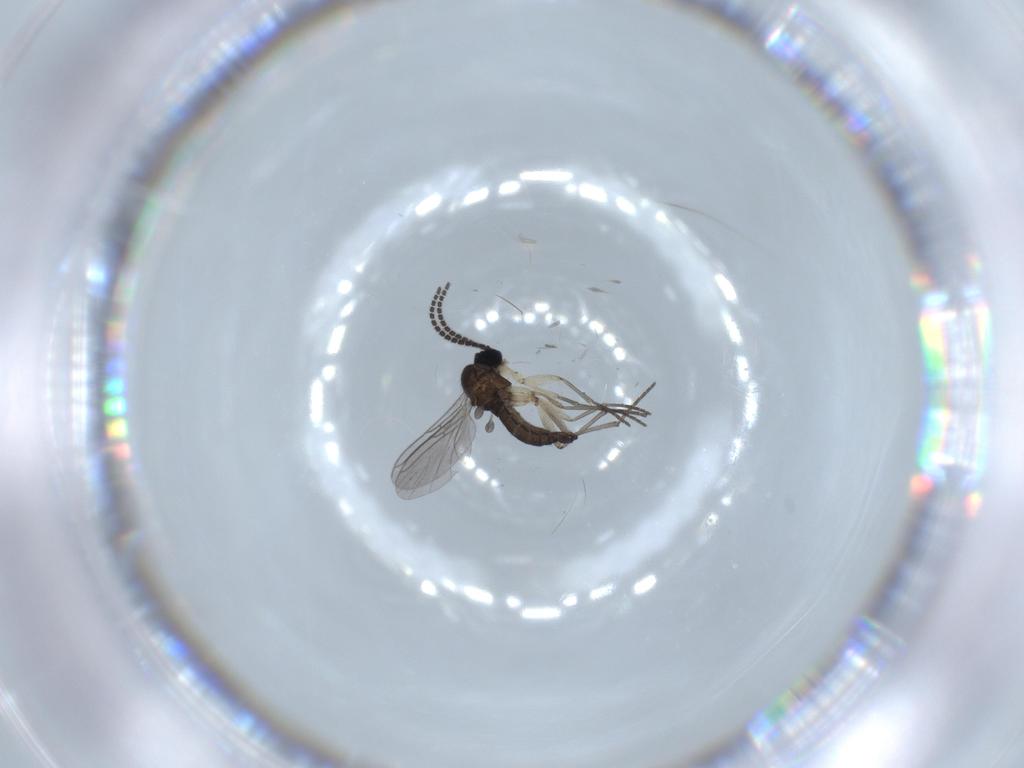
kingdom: Animalia
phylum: Arthropoda
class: Insecta
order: Diptera
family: Sciaridae
